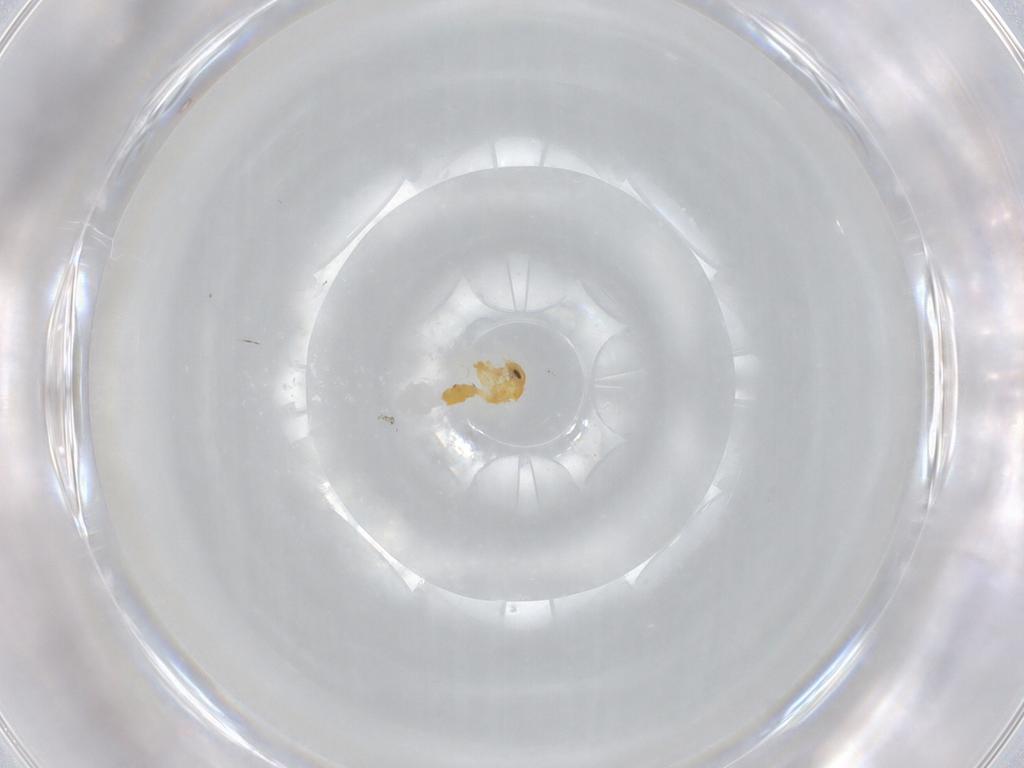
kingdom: Animalia
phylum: Arthropoda
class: Insecta
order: Hemiptera
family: Aleyrodidae
